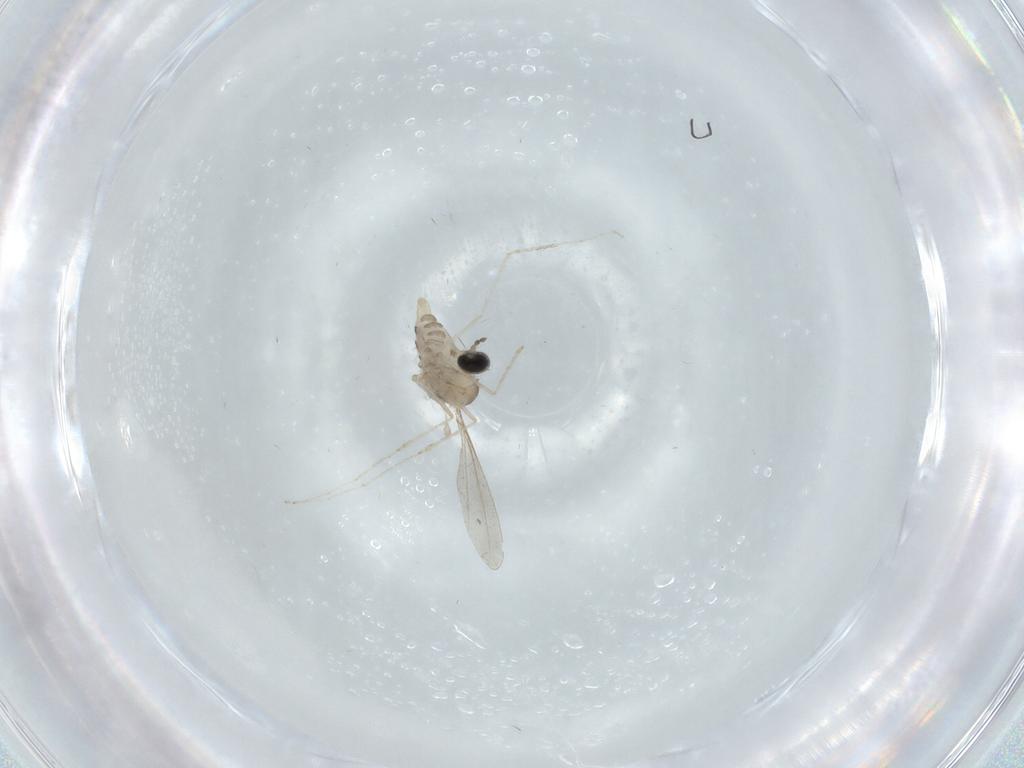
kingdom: Animalia
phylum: Arthropoda
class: Insecta
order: Diptera
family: Cecidomyiidae
